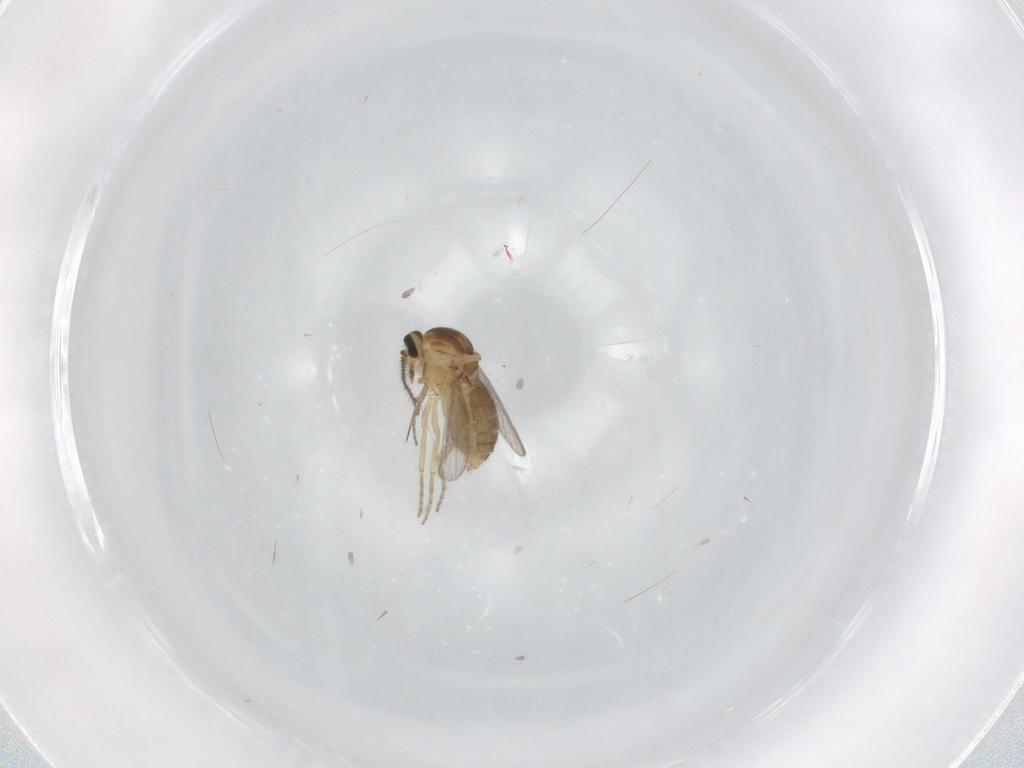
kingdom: Animalia
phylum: Arthropoda
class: Insecta
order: Diptera
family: Ceratopogonidae
